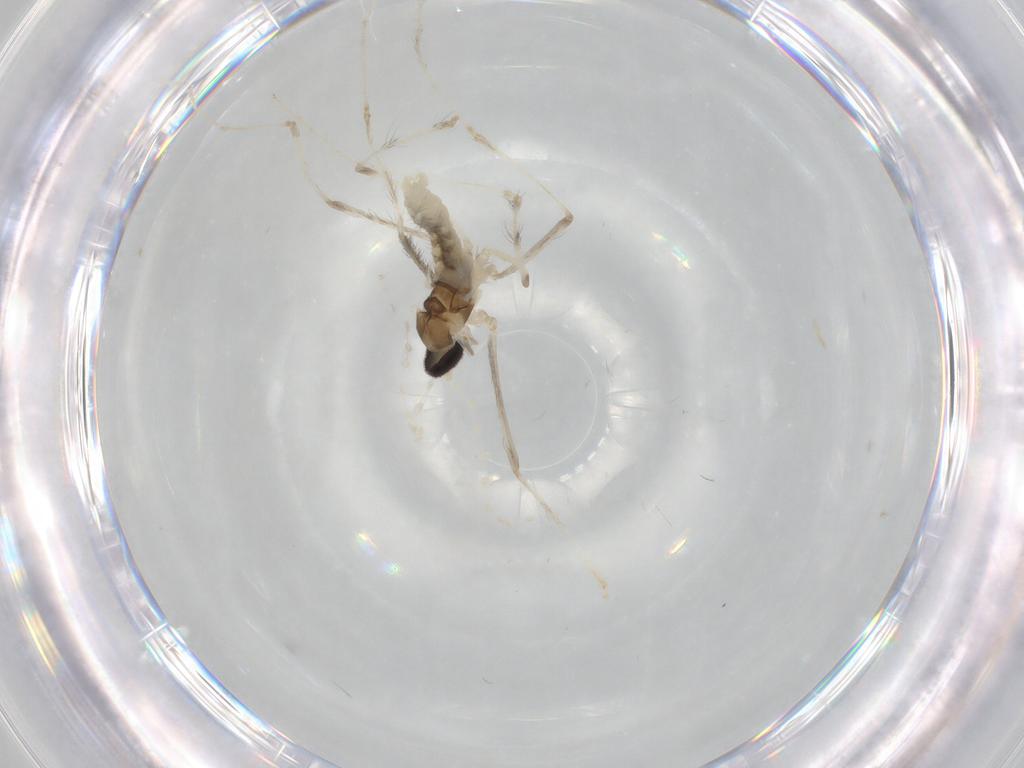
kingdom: Animalia
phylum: Arthropoda
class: Insecta
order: Diptera
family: Cecidomyiidae
